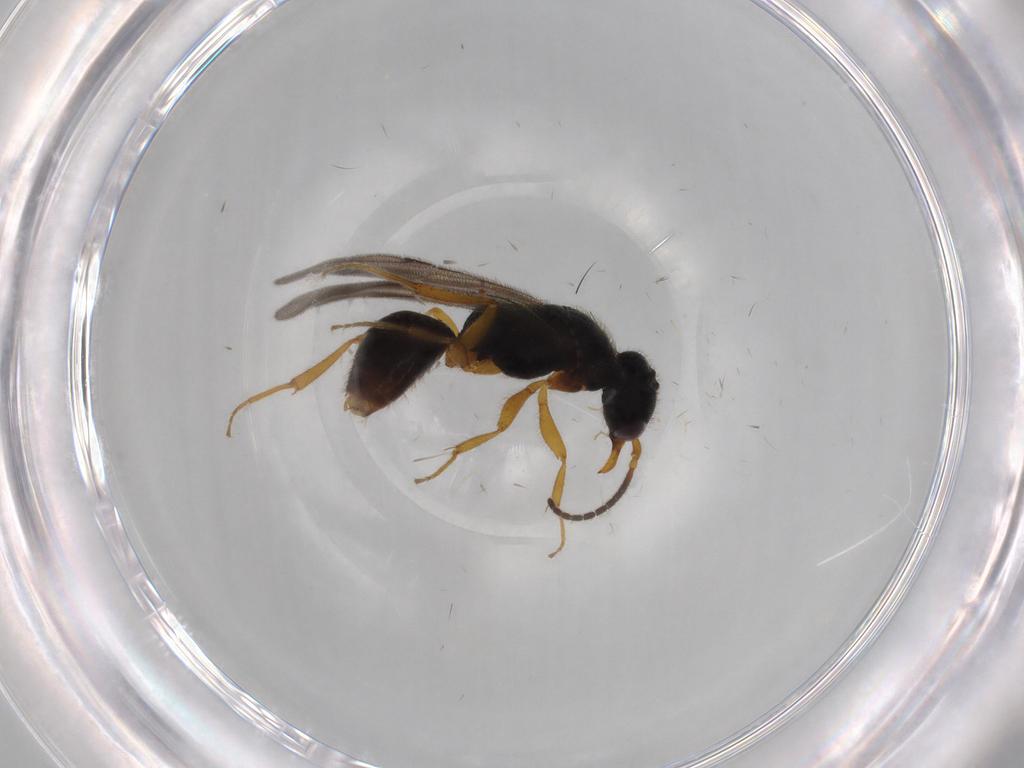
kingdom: Animalia
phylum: Arthropoda
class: Insecta
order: Hymenoptera
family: Bethylidae
